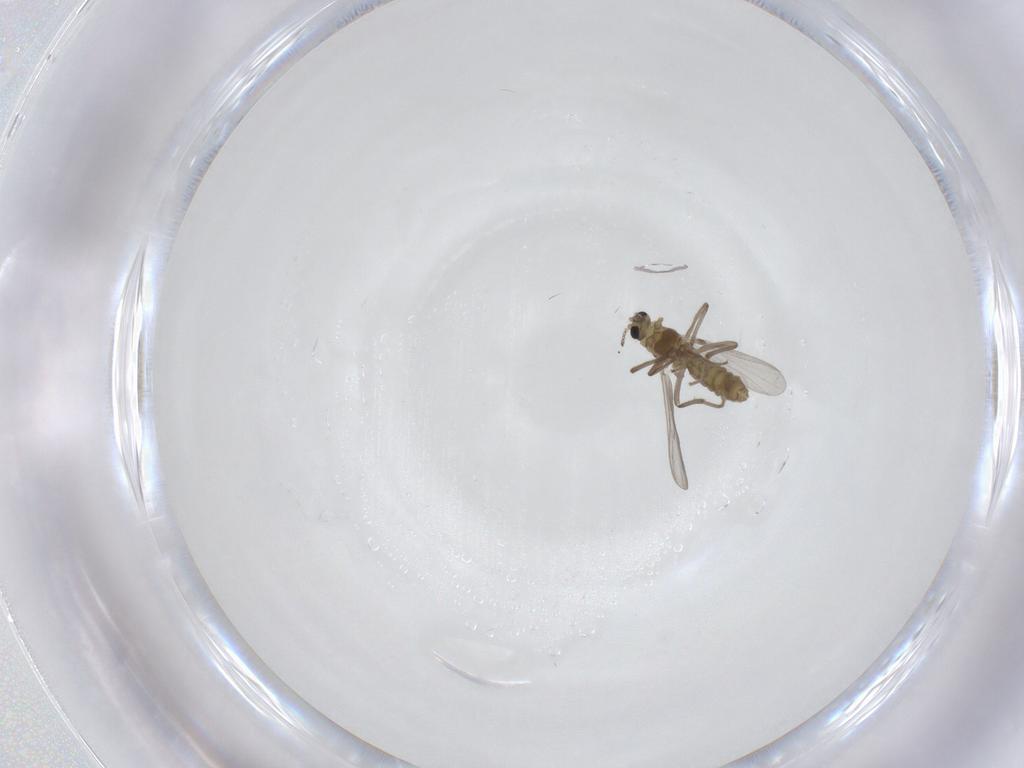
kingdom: Animalia
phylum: Arthropoda
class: Insecta
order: Diptera
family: Chironomidae
